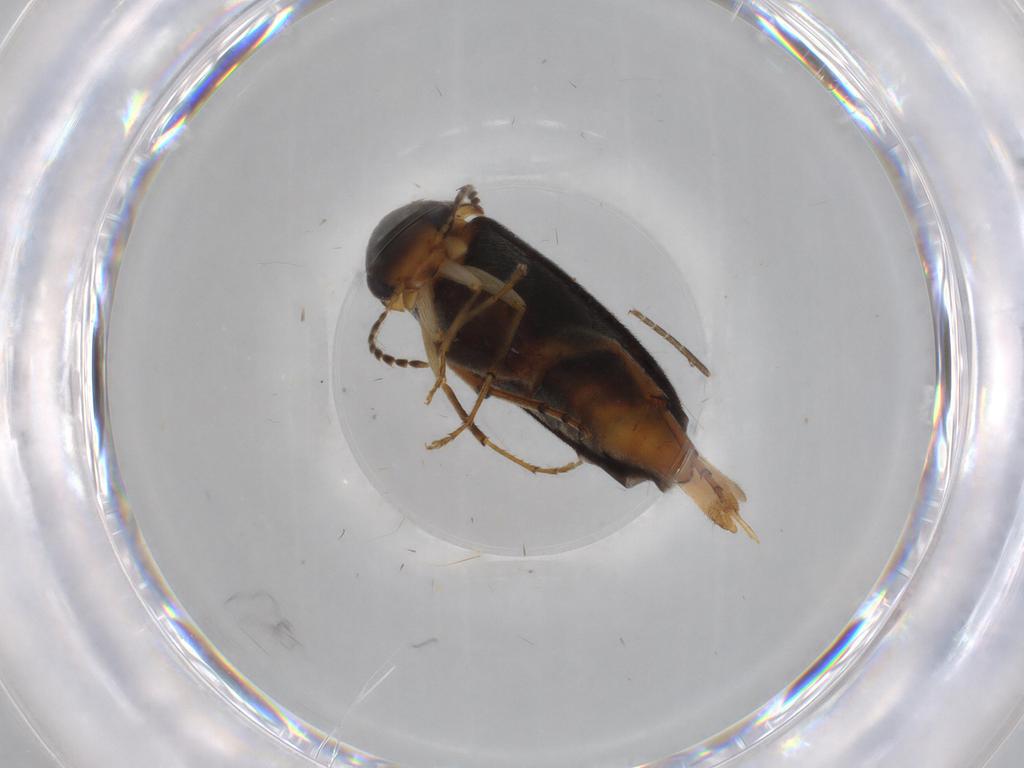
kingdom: Animalia
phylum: Arthropoda
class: Insecta
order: Coleoptera
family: Mordellidae
